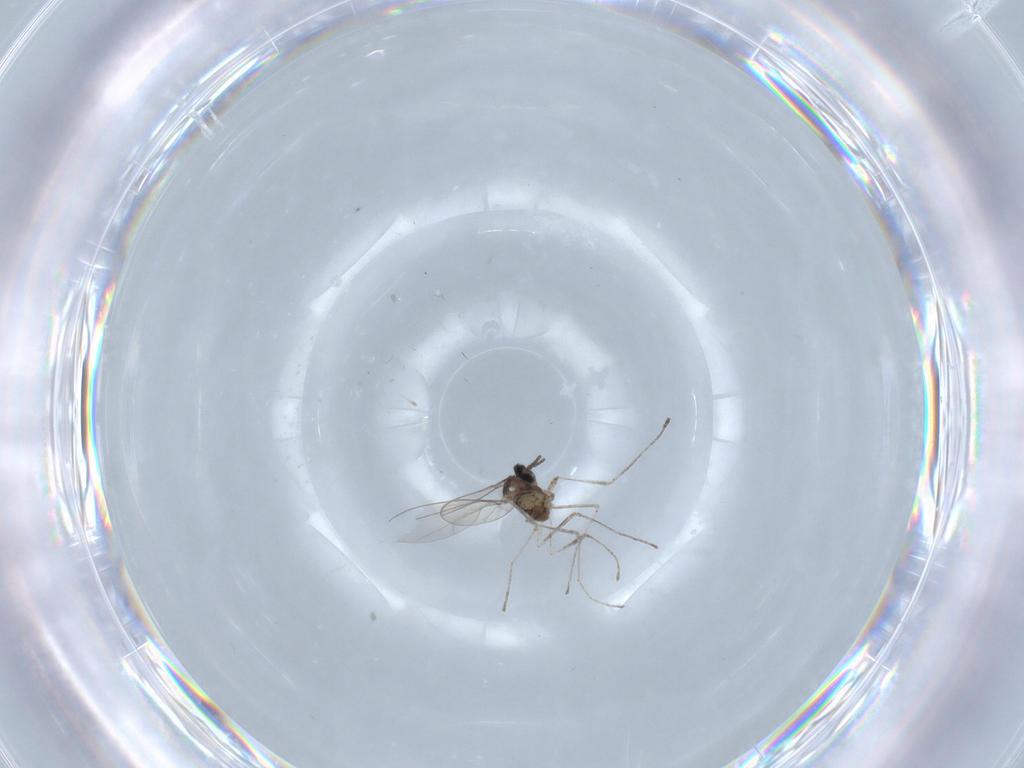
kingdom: Animalia
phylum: Arthropoda
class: Insecta
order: Diptera
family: Cecidomyiidae
